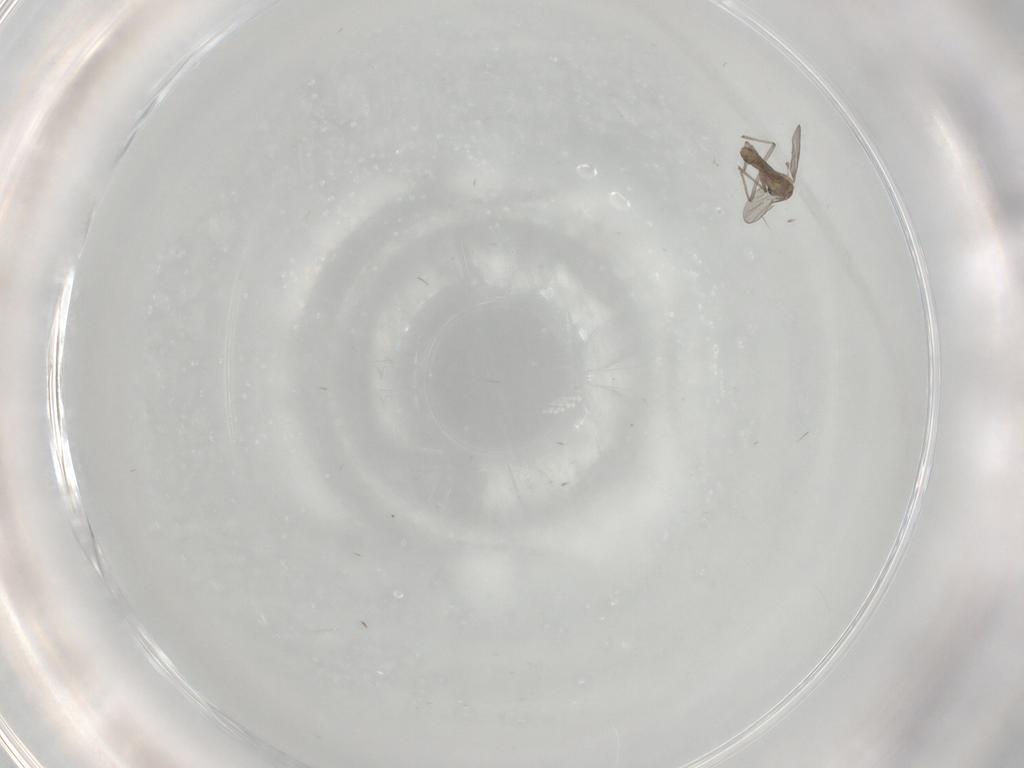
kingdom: Animalia
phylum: Arthropoda
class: Insecta
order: Diptera
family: Chironomidae
